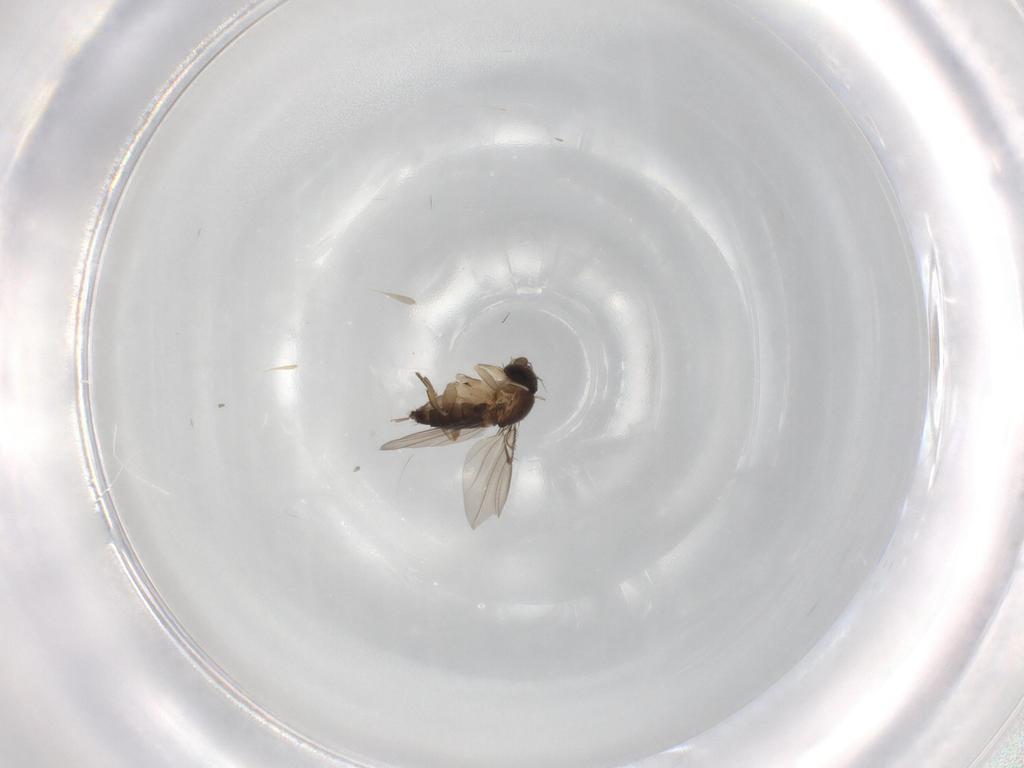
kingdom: Animalia
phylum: Arthropoda
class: Insecta
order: Diptera
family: Phoridae
